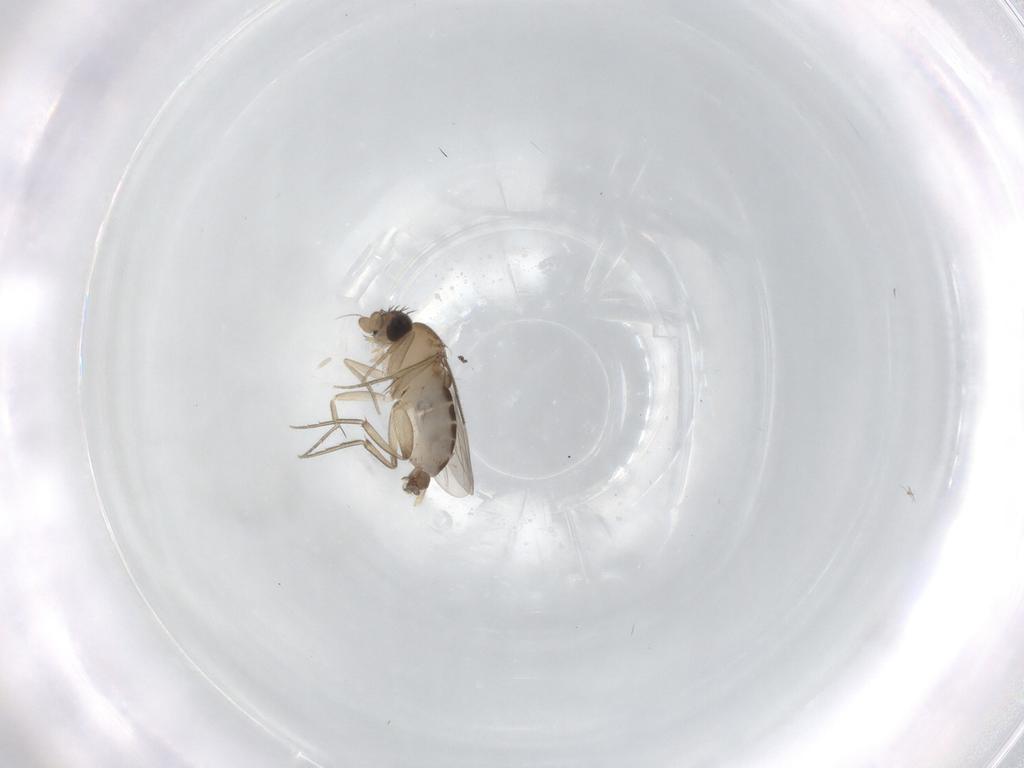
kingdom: Animalia
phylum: Arthropoda
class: Insecta
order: Diptera
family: Phoridae
